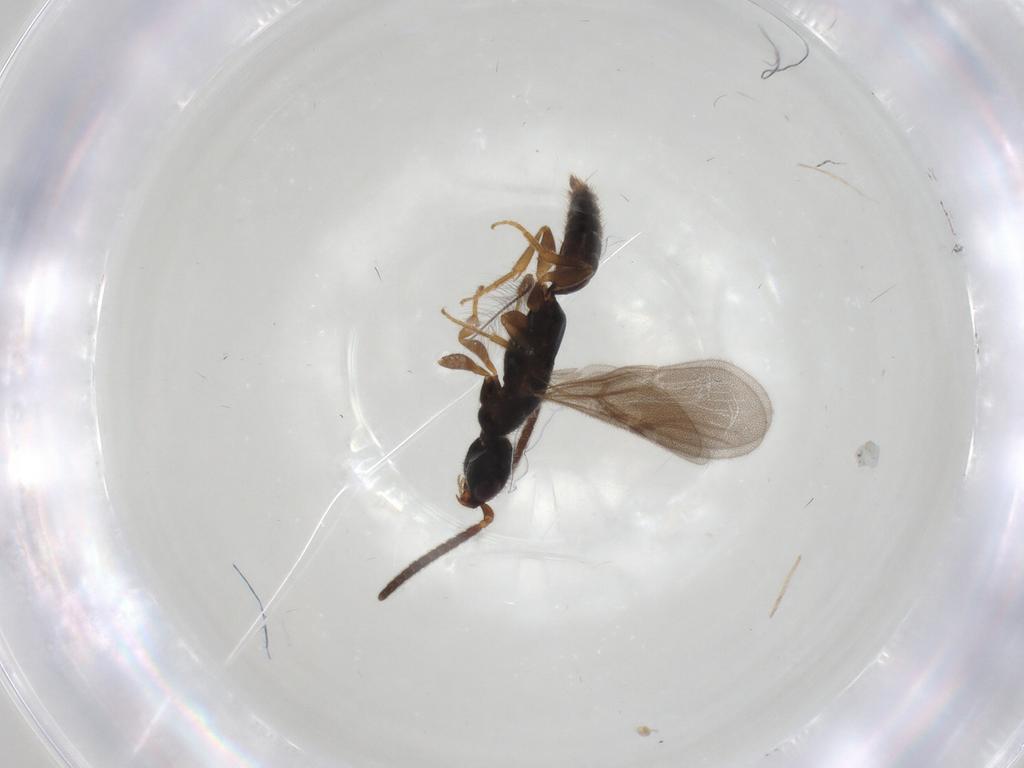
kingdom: Animalia
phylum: Arthropoda
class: Insecta
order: Hymenoptera
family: Bethylidae
